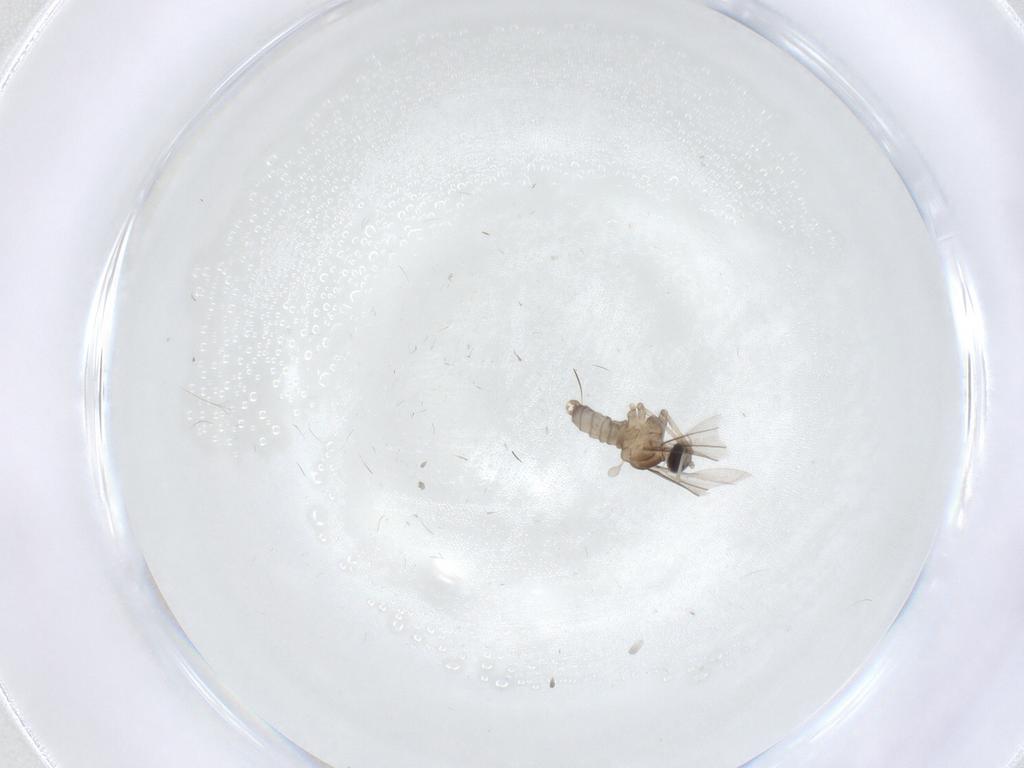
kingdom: Animalia
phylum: Arthropoda
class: Insecta
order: Diptera
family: Cecidomyiidae
